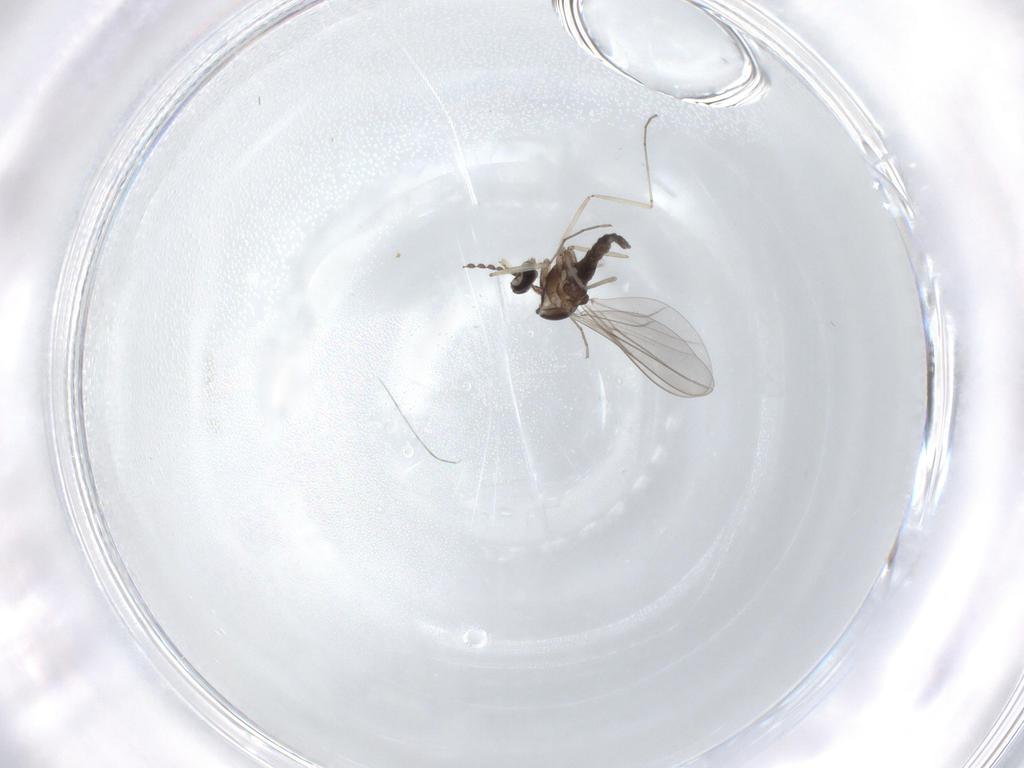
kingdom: Animalia
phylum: Arthropoda
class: Insecta
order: Diptera
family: Cecidomyiidae
